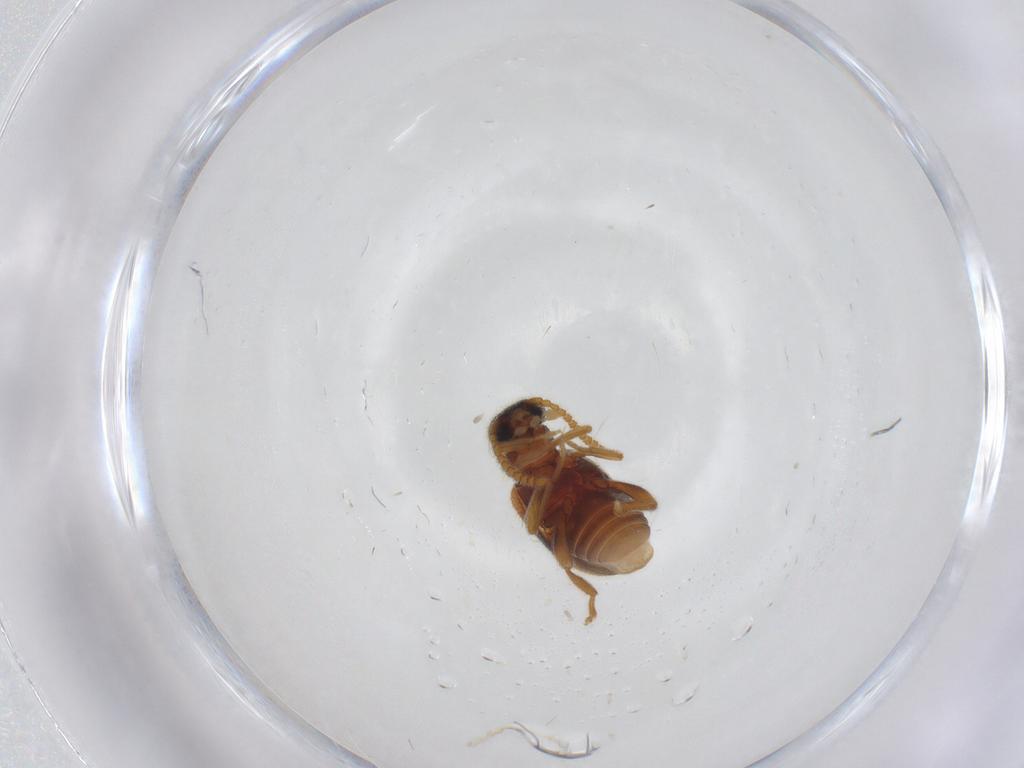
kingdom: Animalia
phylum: Arthropoda
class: Insecta
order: Coleoptera
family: Aderidae
